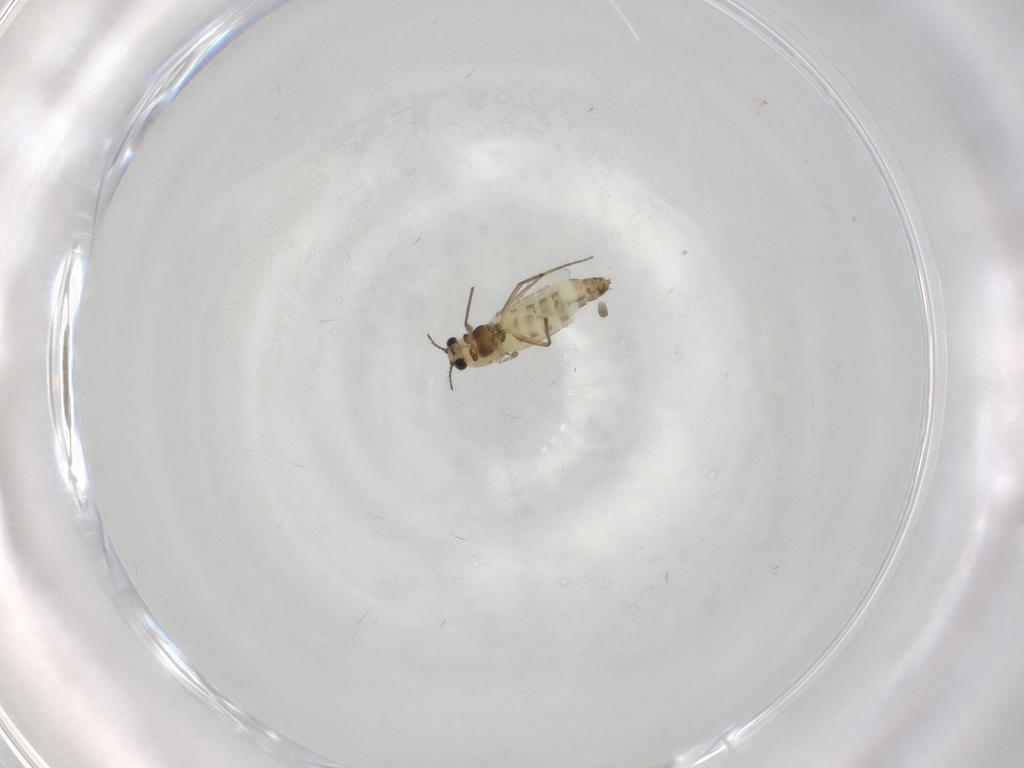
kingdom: Animalia
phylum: Arthropoda
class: Insecta
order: Diptera
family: Chironomidae
